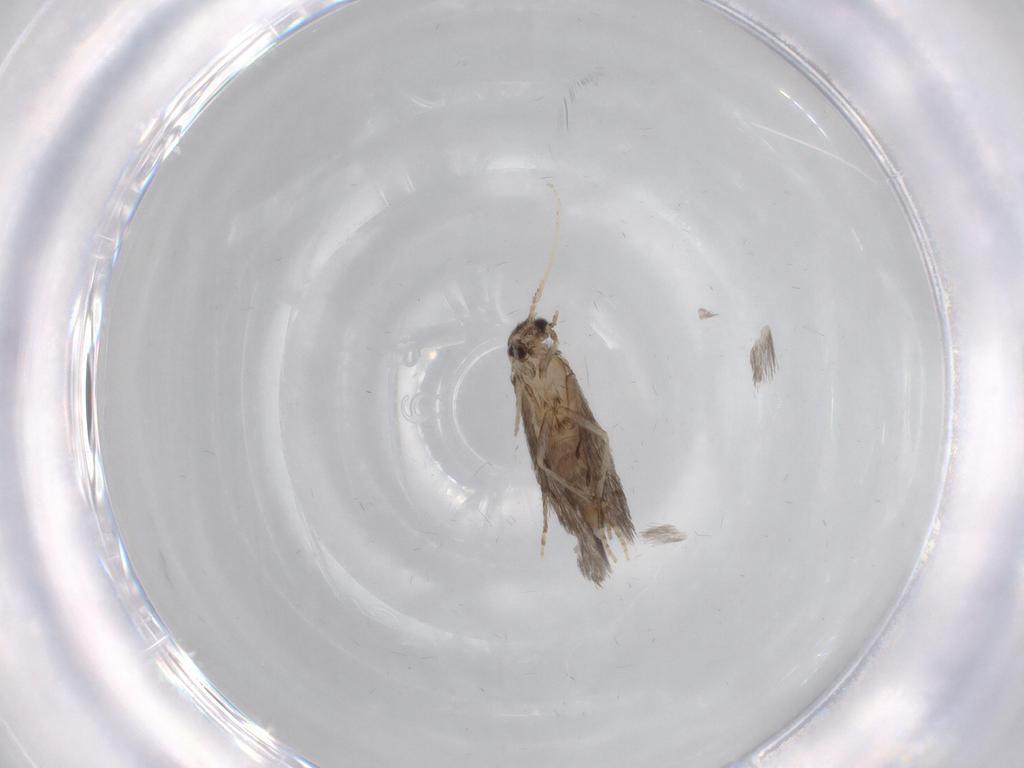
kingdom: Animalia
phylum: Arthropoda
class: Insecta
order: Trichoptera
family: Hydroptilidae
